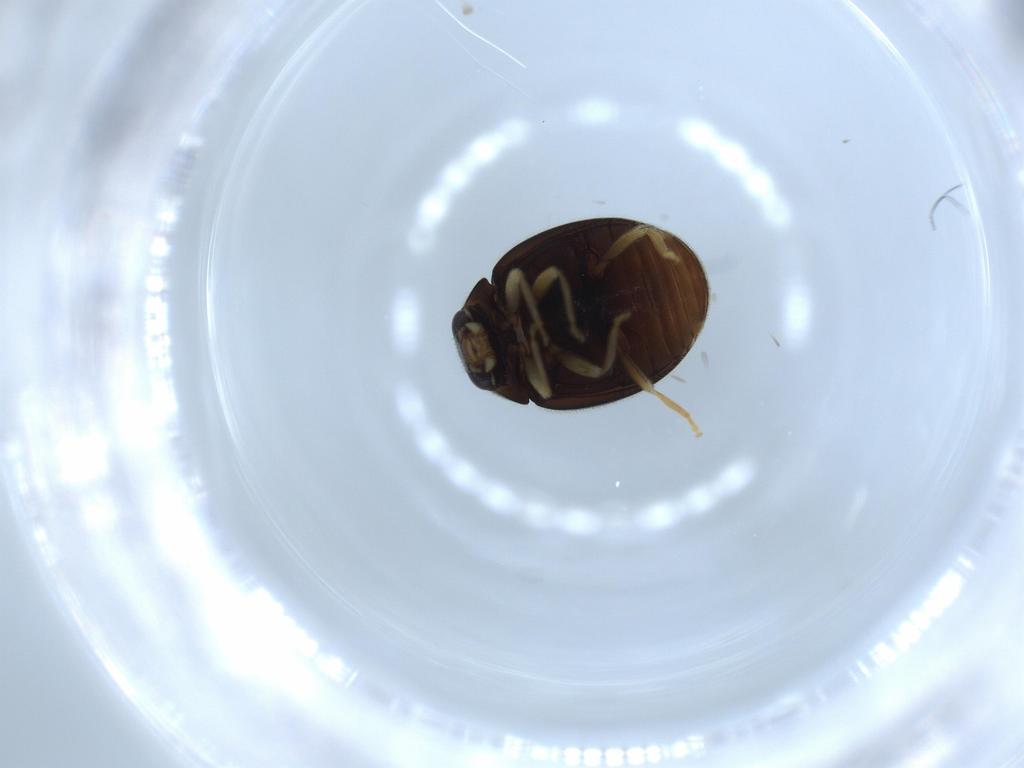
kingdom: Animalia
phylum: Arthropoda
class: Insecta
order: Coleoptera
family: Coccinellidae
